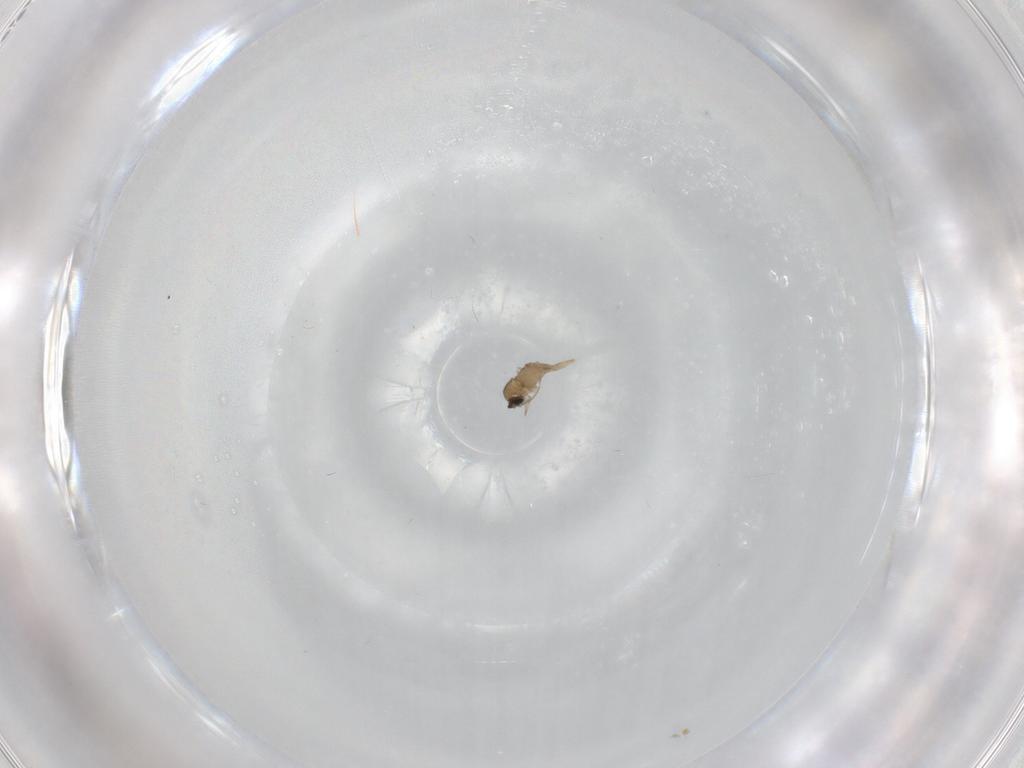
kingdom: Animalia
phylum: Arthropoda
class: Insecta
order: Diptera
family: Cecidomyiidae
